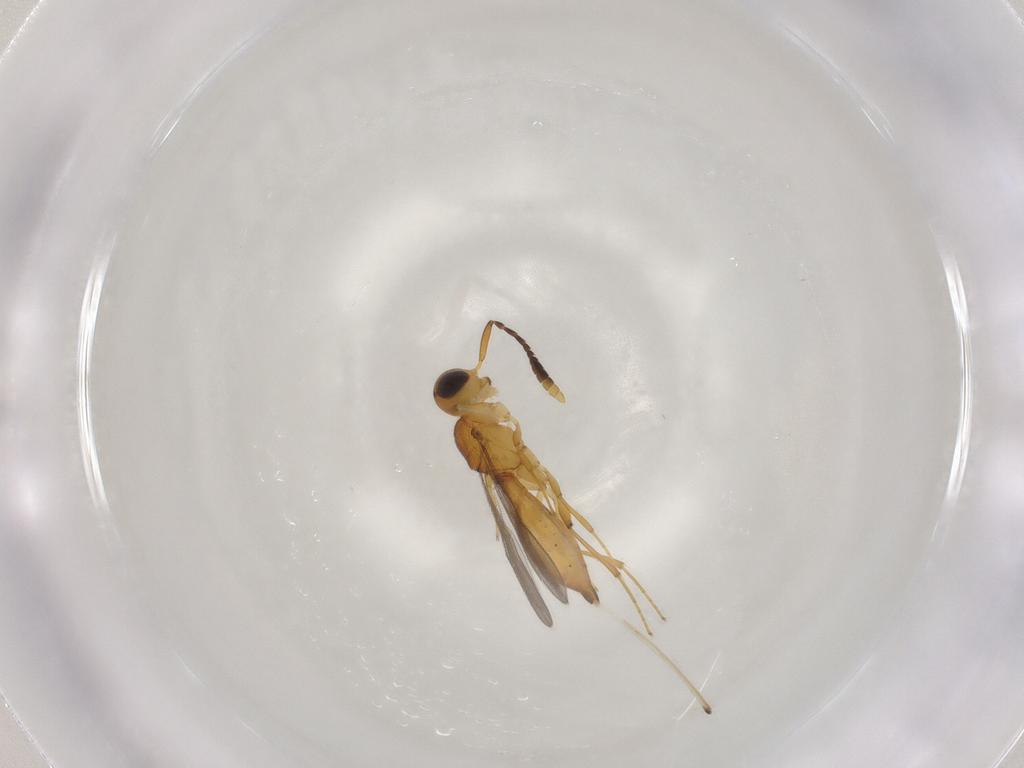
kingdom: Animalia
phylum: Arthropoda
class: Insecta
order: Hymenoptera
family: Scelionidae
